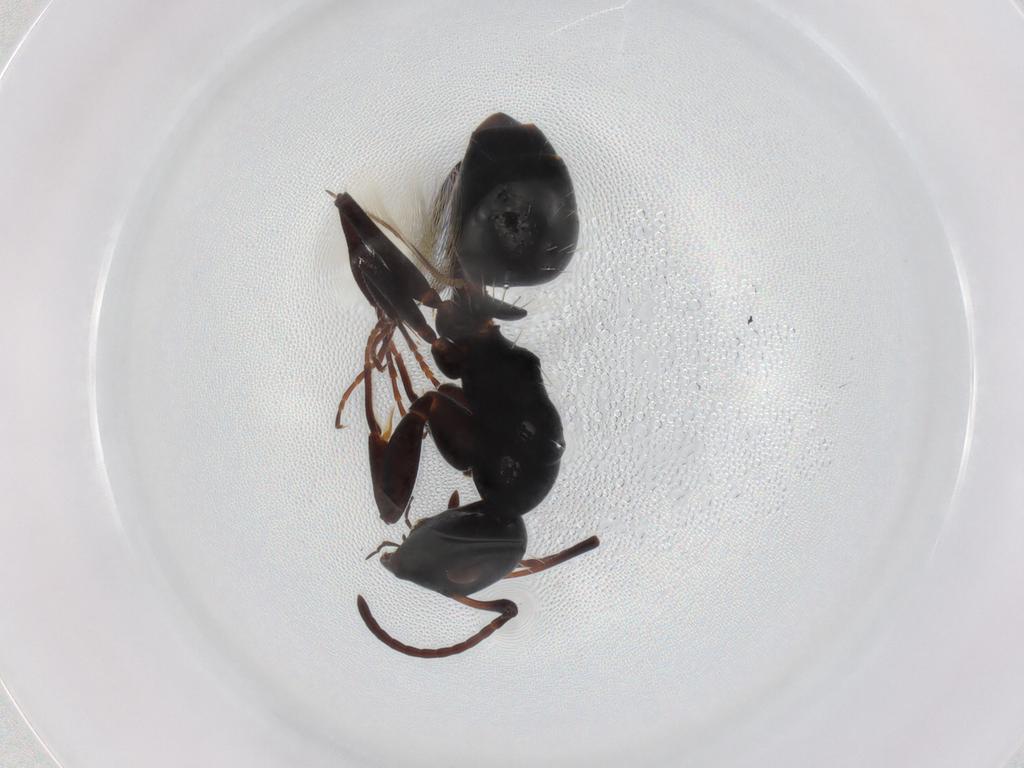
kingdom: Animalia
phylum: Arthropoda
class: Insecta
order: Hymenoptera
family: Formicidae
